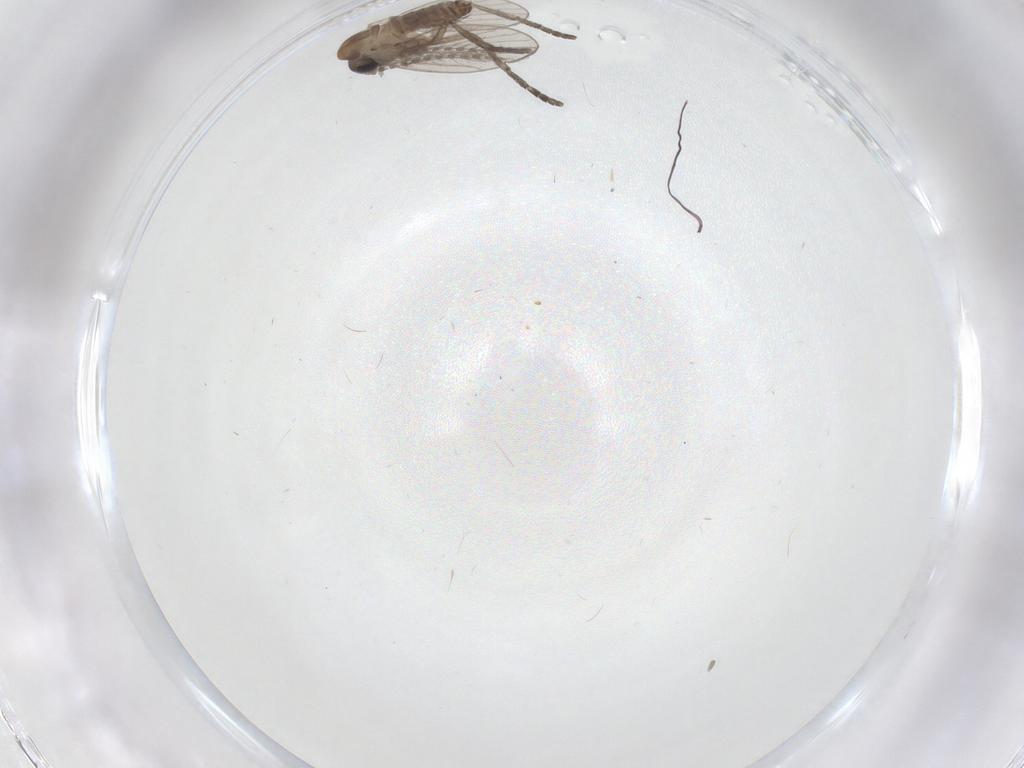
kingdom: Animalia
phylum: Arthropoda
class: Insecta
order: Diptera
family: Psychodidae
